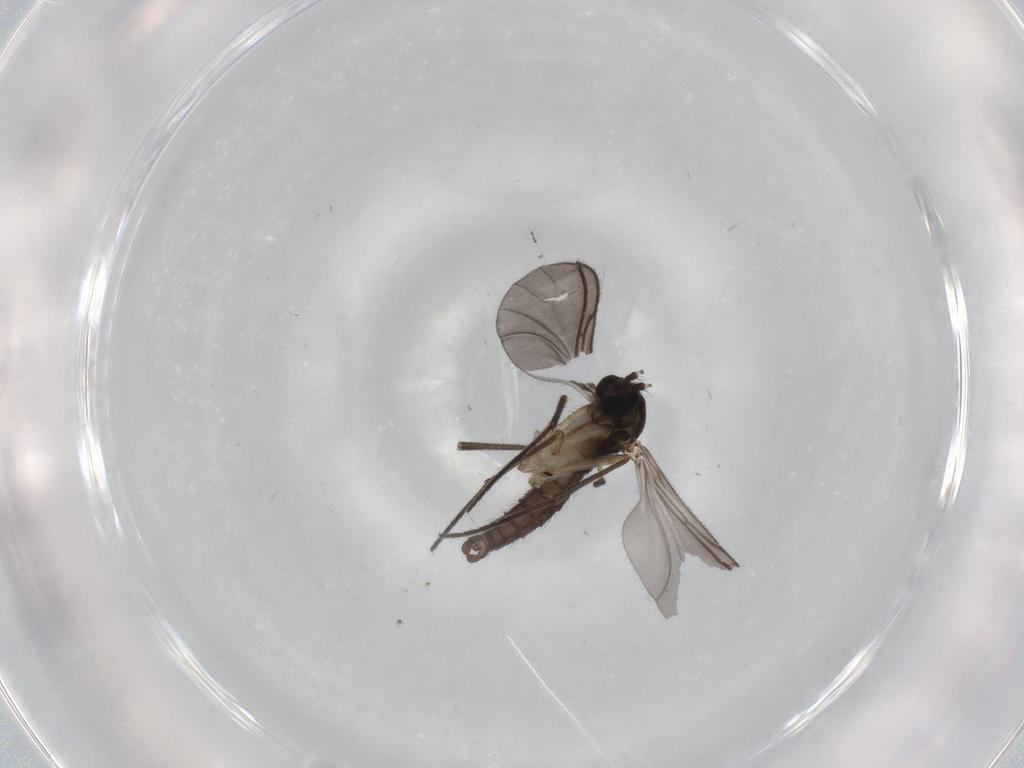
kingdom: Animalia
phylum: Arthropoda
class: Insecta
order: Diptera
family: Sciaridae
